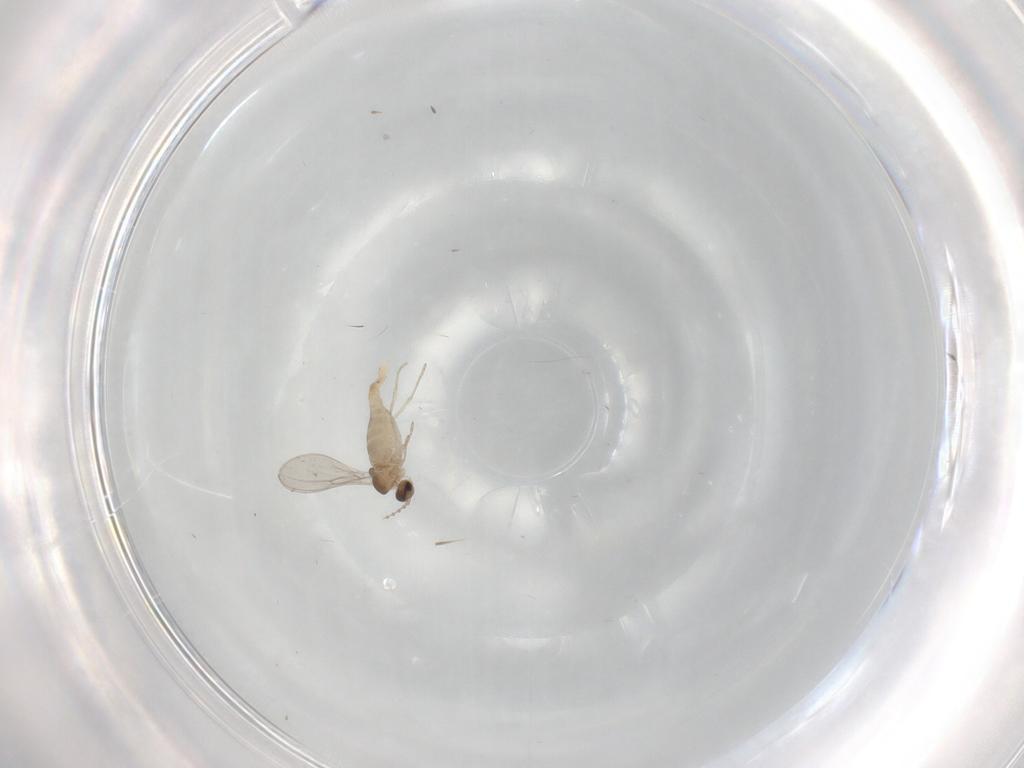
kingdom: Animalia
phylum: Arthropoda
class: Insecta
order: Diptera
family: Cecidomyiidae
